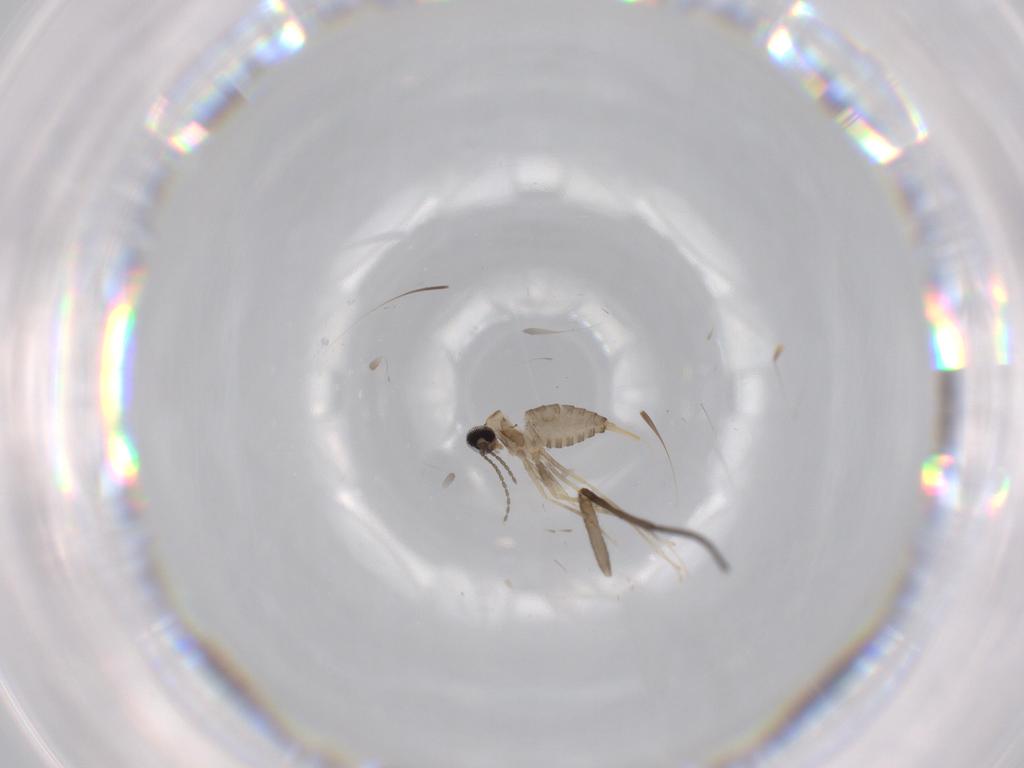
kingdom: Animalia
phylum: Arthropoda
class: Insecta
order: Diptera
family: Cecidomyiidae
